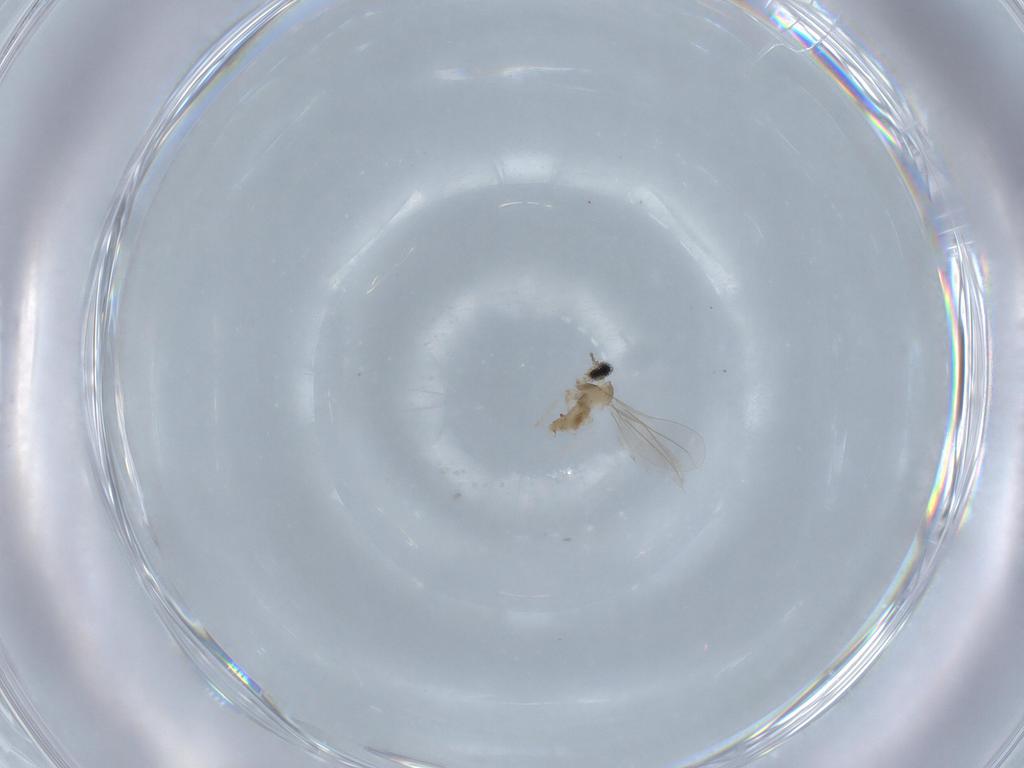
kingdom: Animalia
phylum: Arthropoda
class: Insecta
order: Diptera
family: Cecidomyiidae
